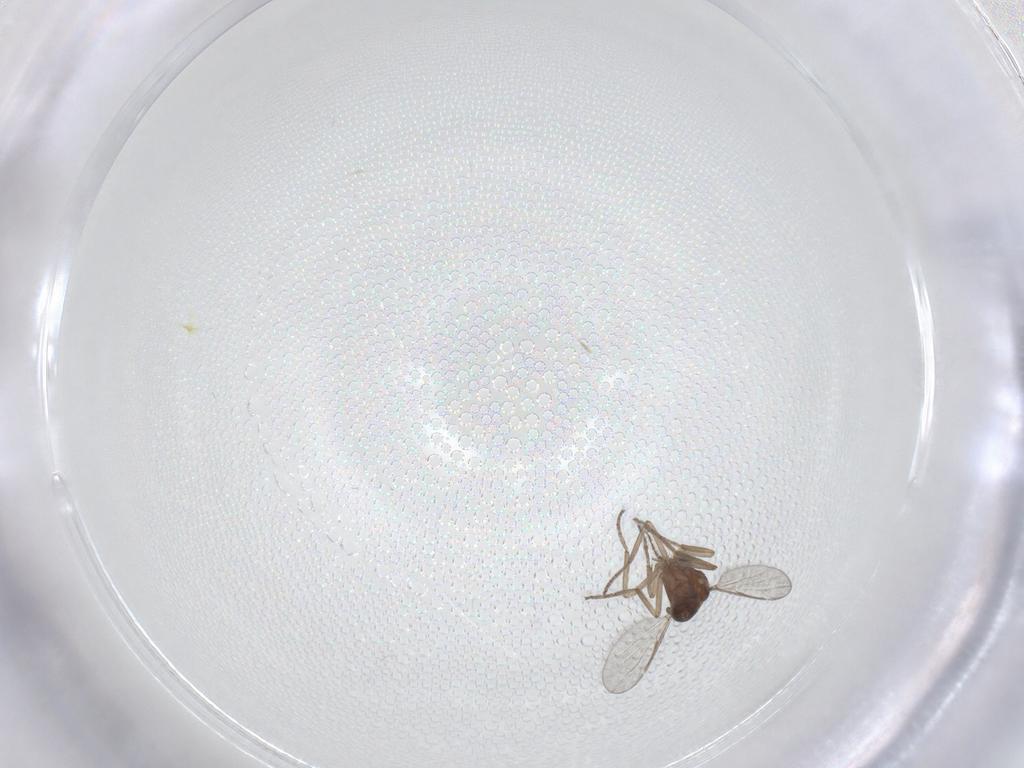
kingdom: Animalia
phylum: Arthropoda
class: Insecta
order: Diptera
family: Ceratopogonidae
